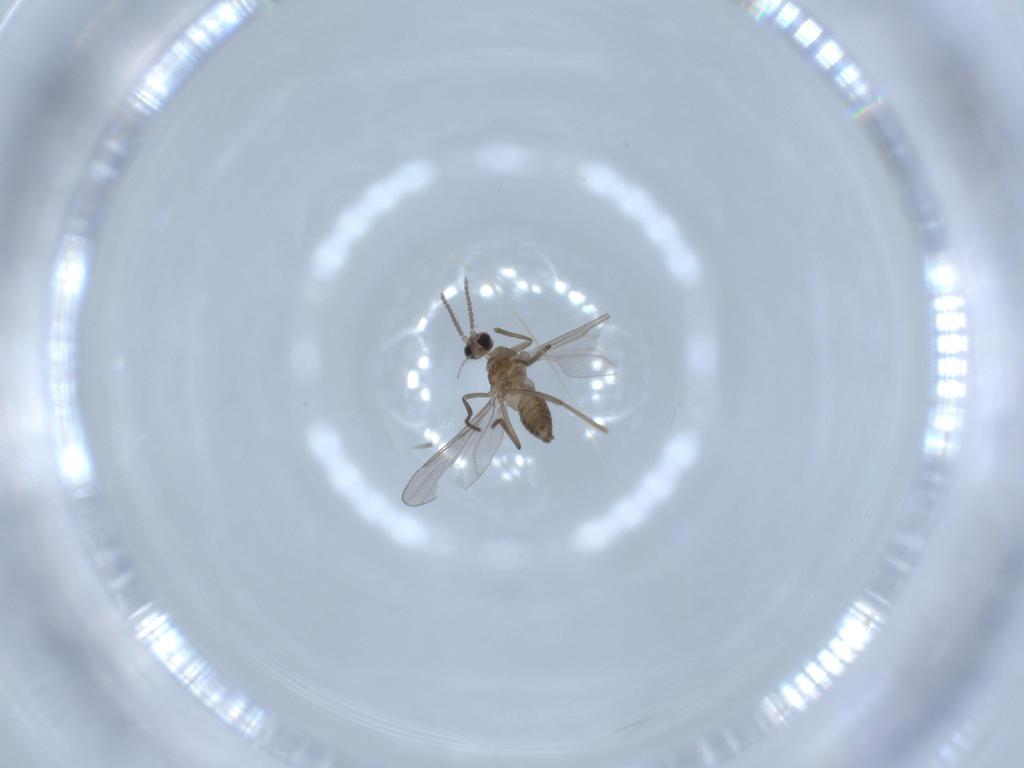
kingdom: Animalia
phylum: Arthropoda
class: Insecta
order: Diptera
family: Cecidomyiidae
